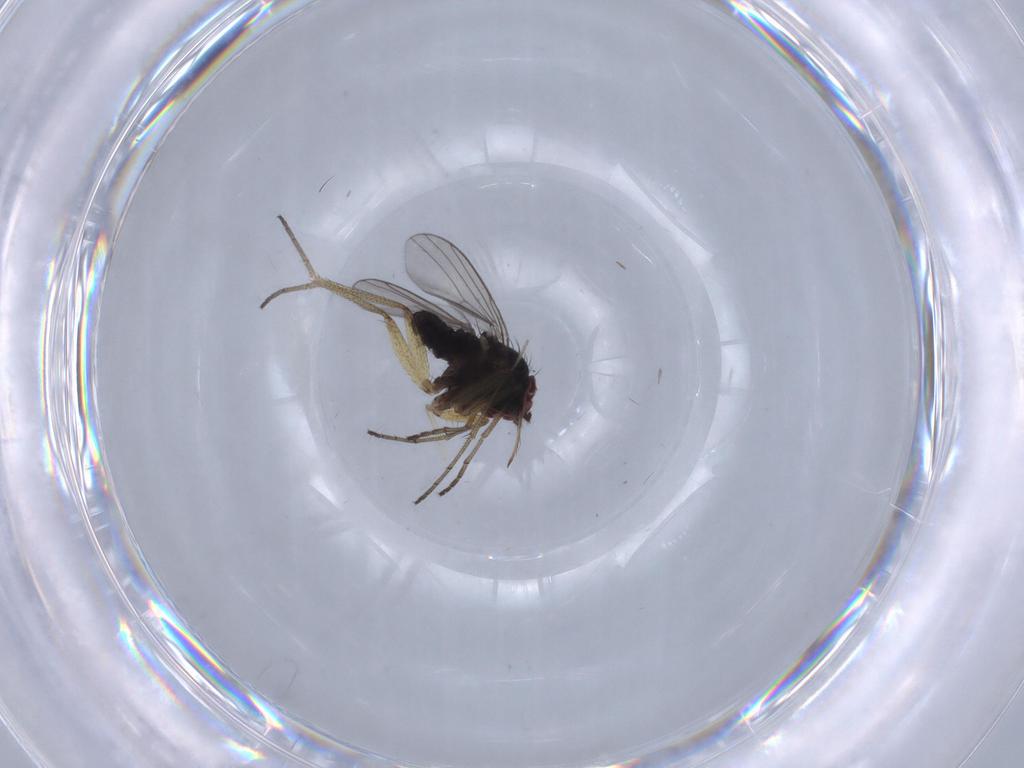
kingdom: Animalia
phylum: Arthropoda
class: Insecta
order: Diptera
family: Dolichopodidae
